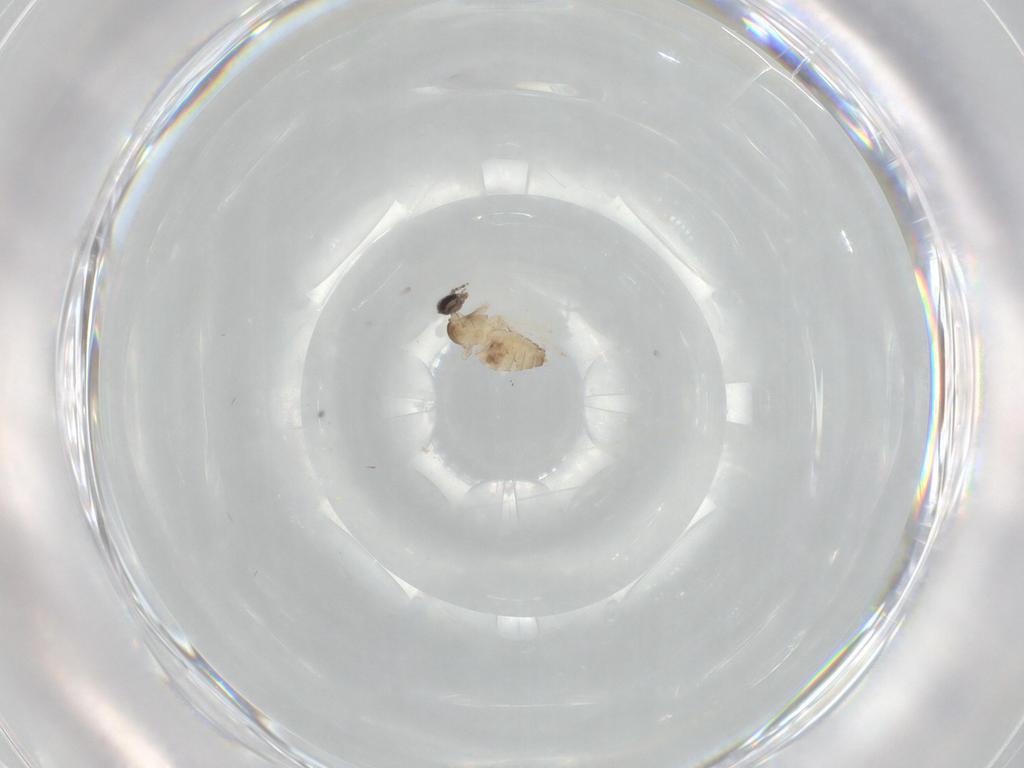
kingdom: Animalia
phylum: Arthropoda
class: Insecta
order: Diptera
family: Cecidomyiidae
